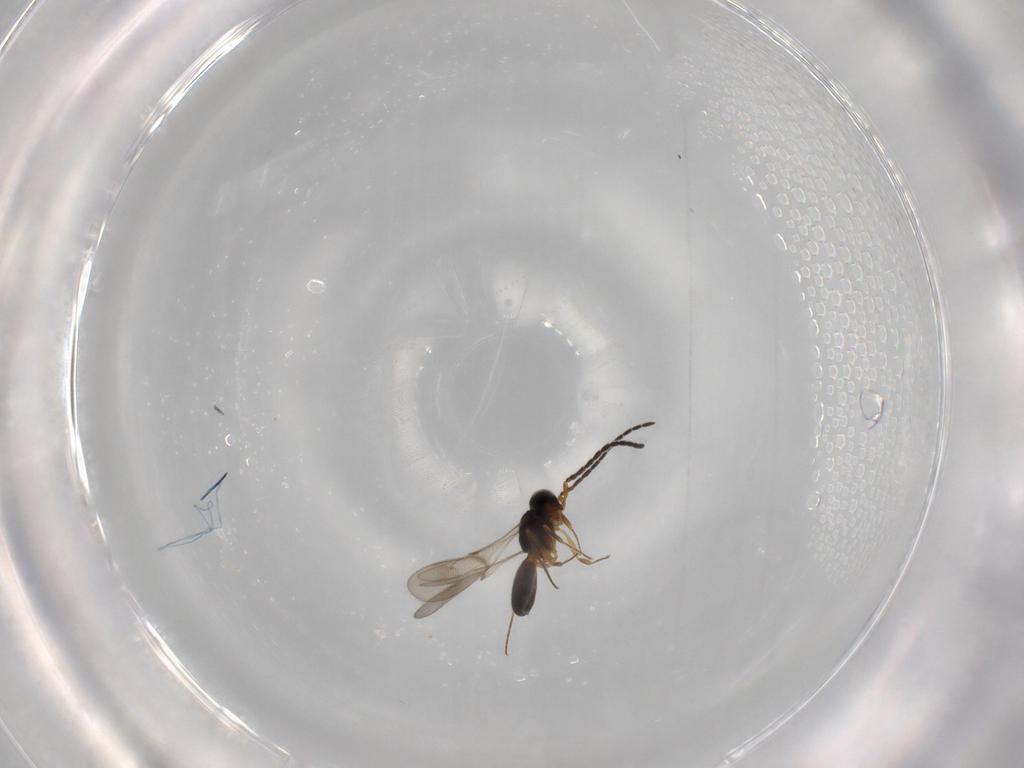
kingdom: Animalia
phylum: Arthropoda
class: Insecta
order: Hymenoptera
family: Scelionidae
